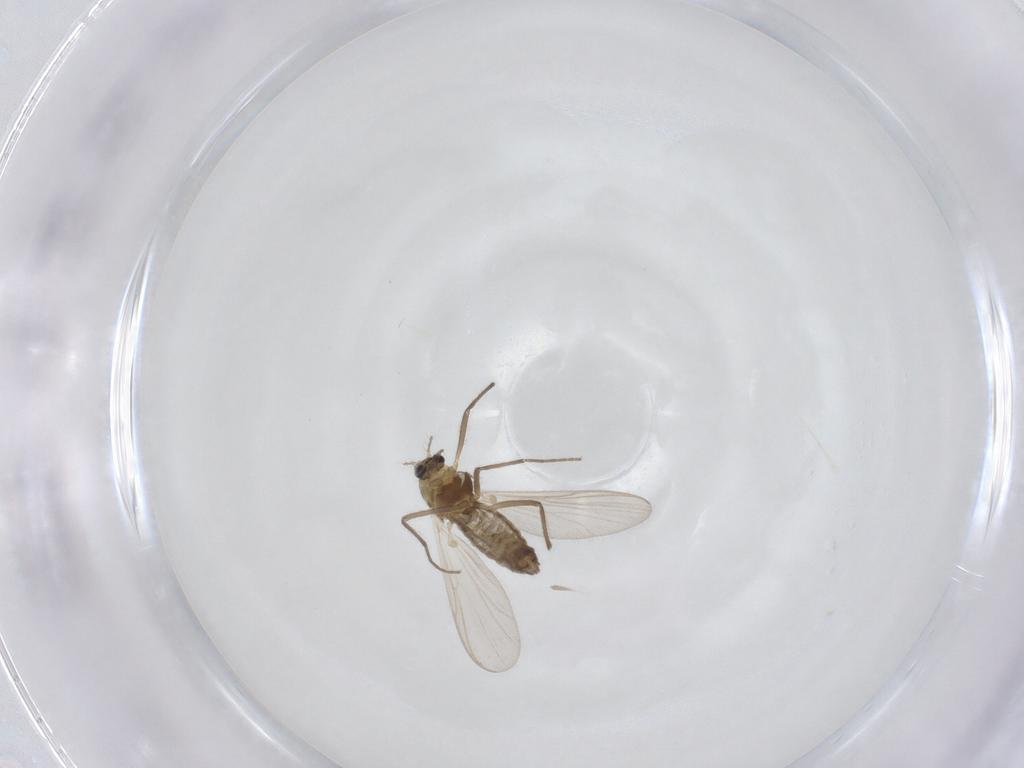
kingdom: Animalia
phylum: Arthropoda
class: Insecta
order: Diptera
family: Chironomidae
